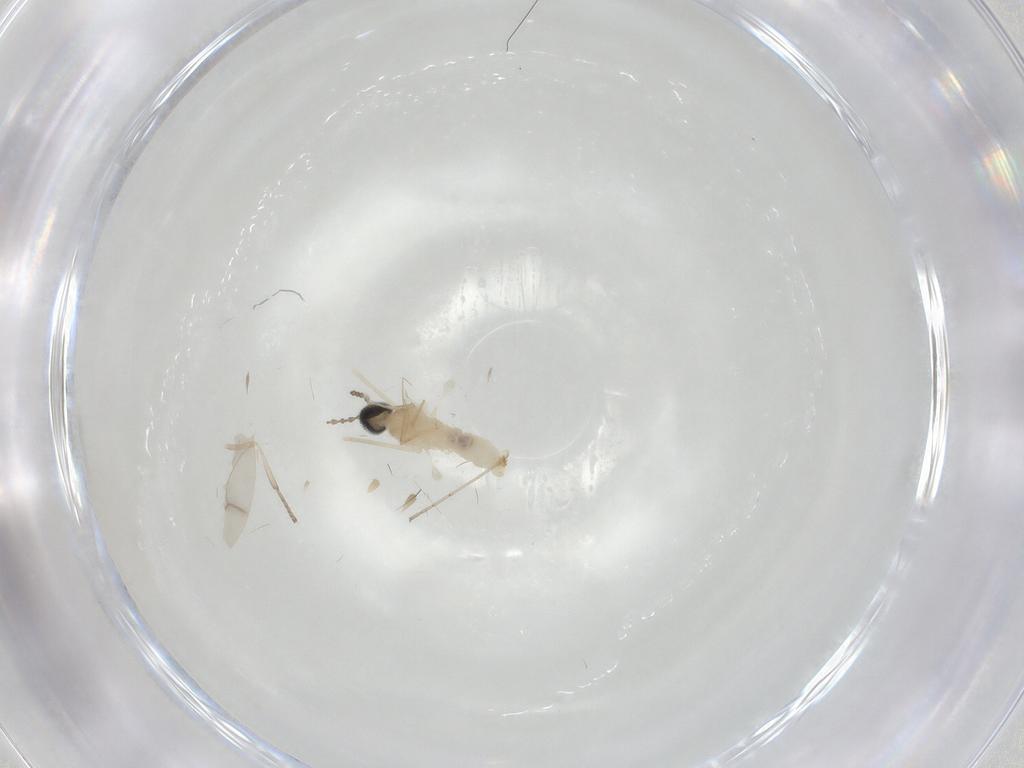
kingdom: Animalia
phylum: Arthropoda
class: Insecta
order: Diptera
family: Cecidomyiidae
